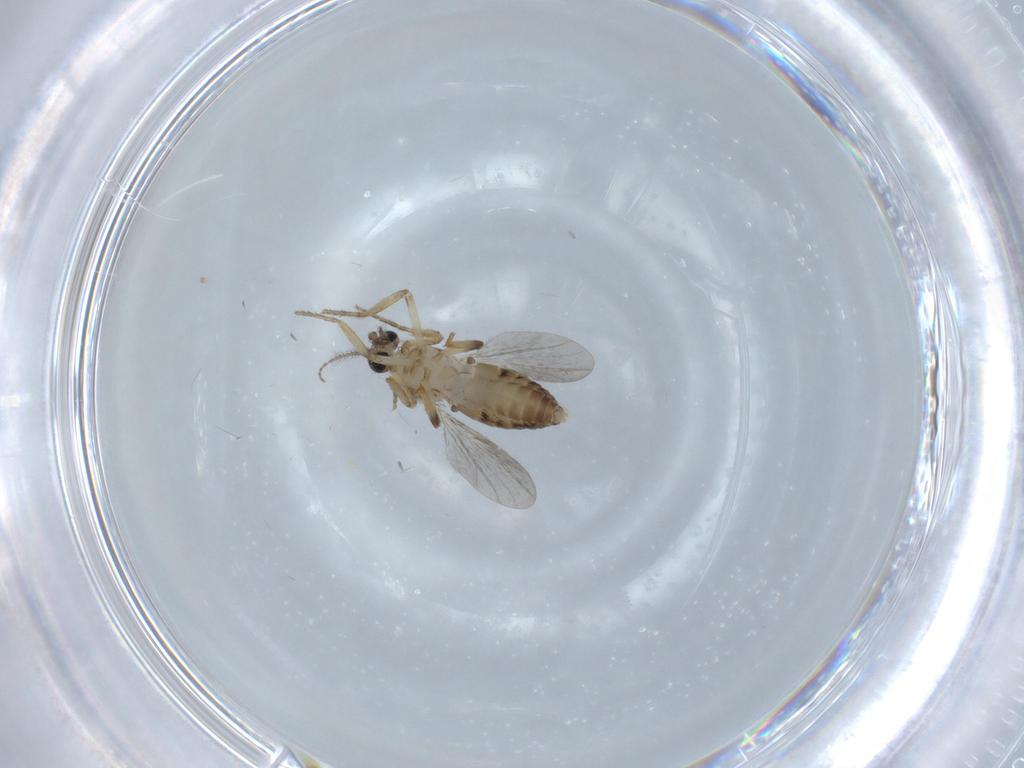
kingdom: Animalia
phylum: Arthropoda
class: Insecta
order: Diptera
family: Ceratopogonidae
